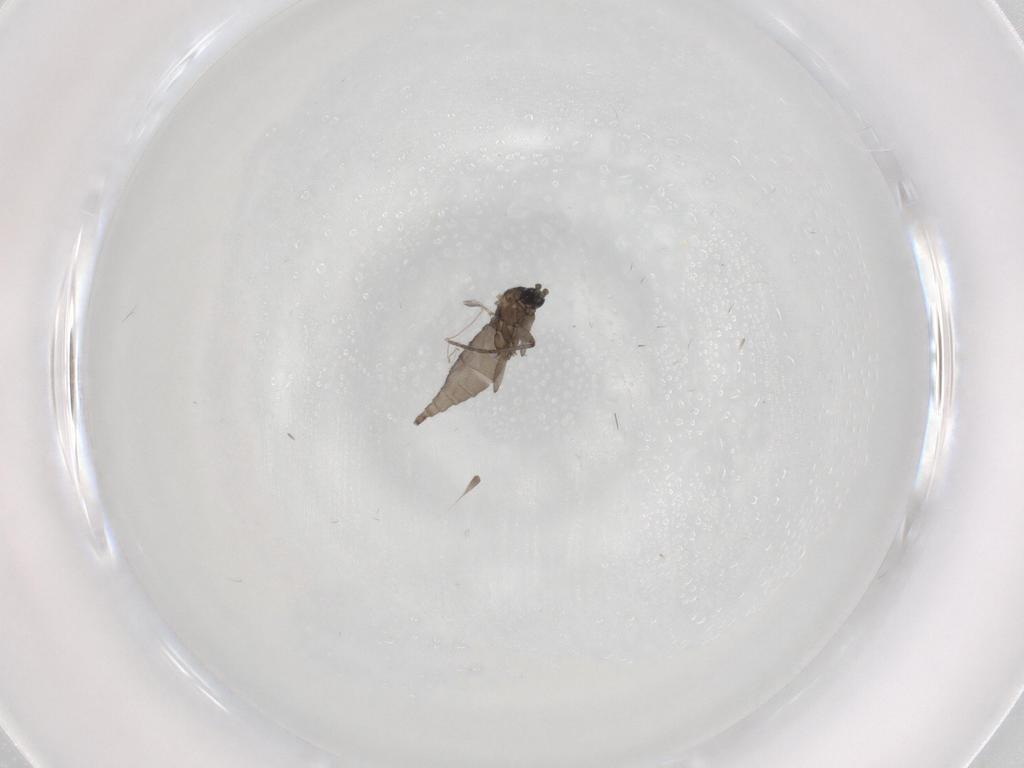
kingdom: Animalia
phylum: Arthropoda
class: Insecta
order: Diptera
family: Sciaridae
